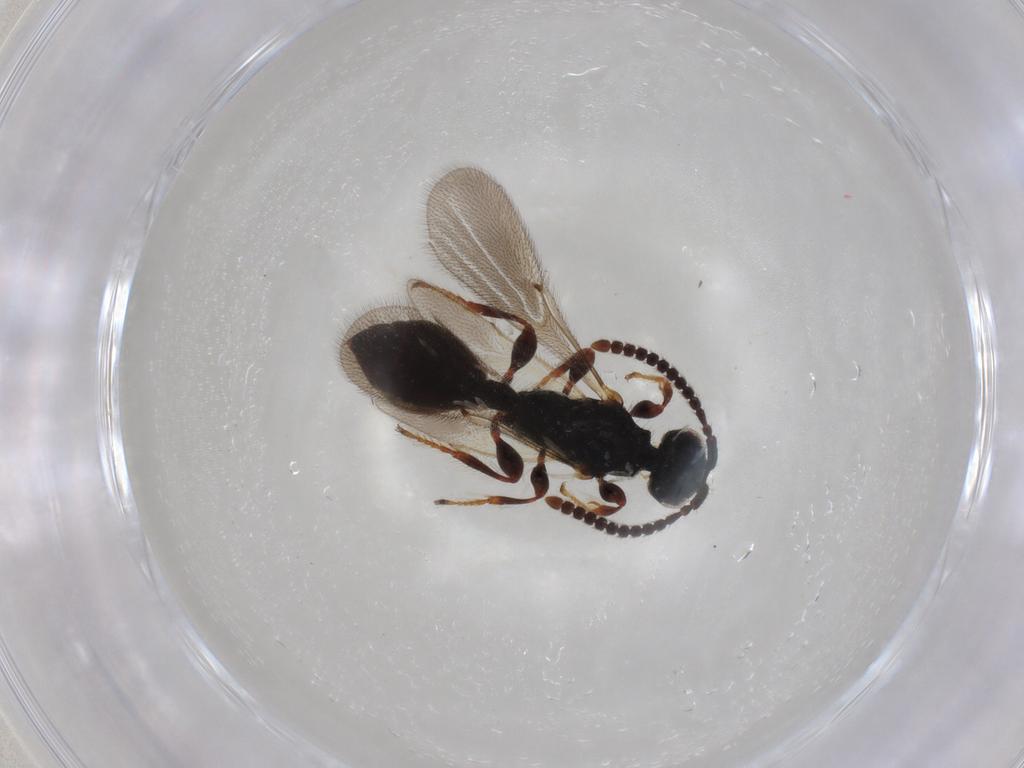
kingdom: Animalia
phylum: Arthropoda
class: Insecta
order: Hymenoptera
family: Diapriidae
